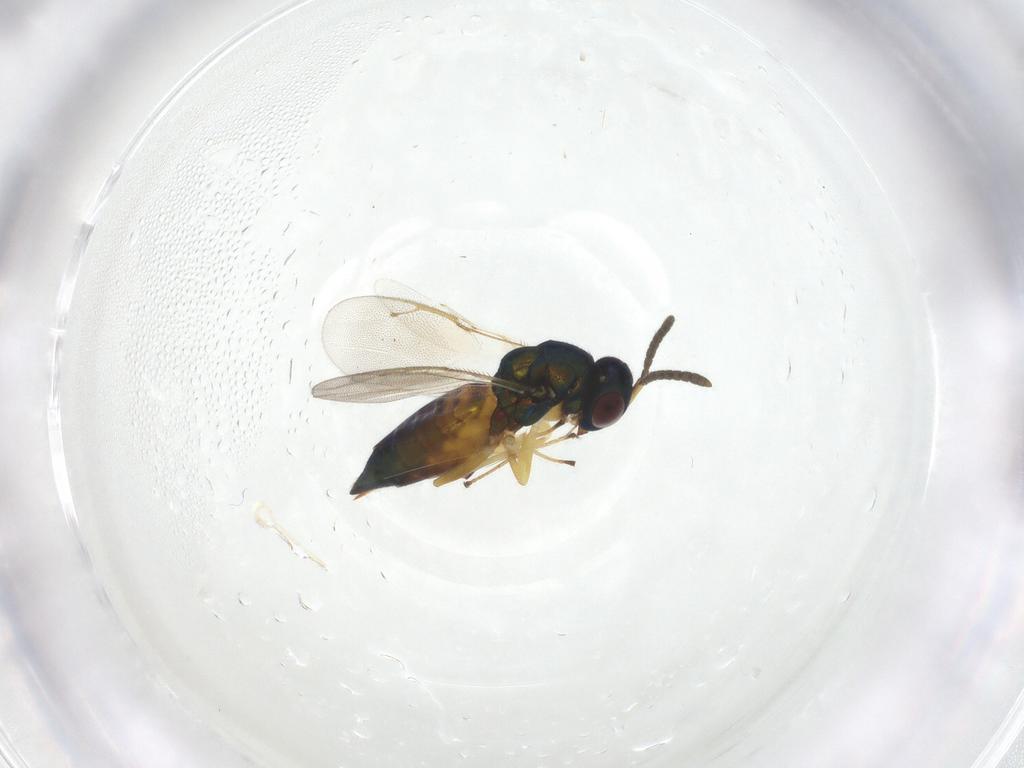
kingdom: Animalia
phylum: Arthropoda
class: Insecta
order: Hymenoptera
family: Pteromalidae
